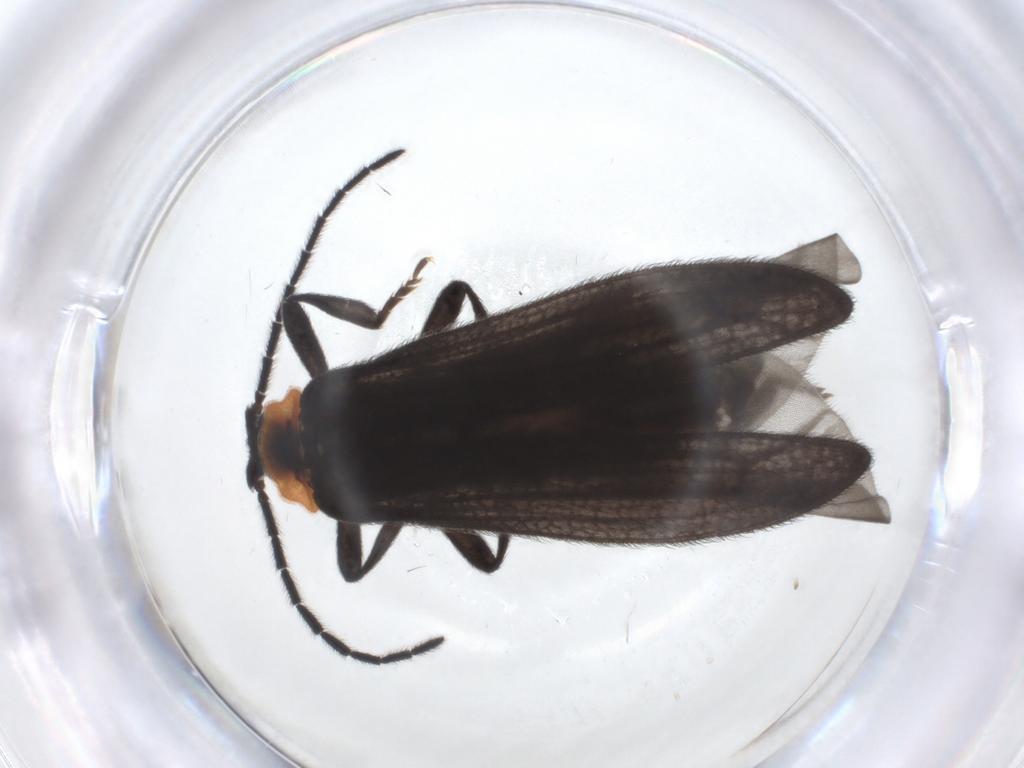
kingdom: Animalia
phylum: Arthropoda
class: Insecta
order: Coleoptera
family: Lycidae
